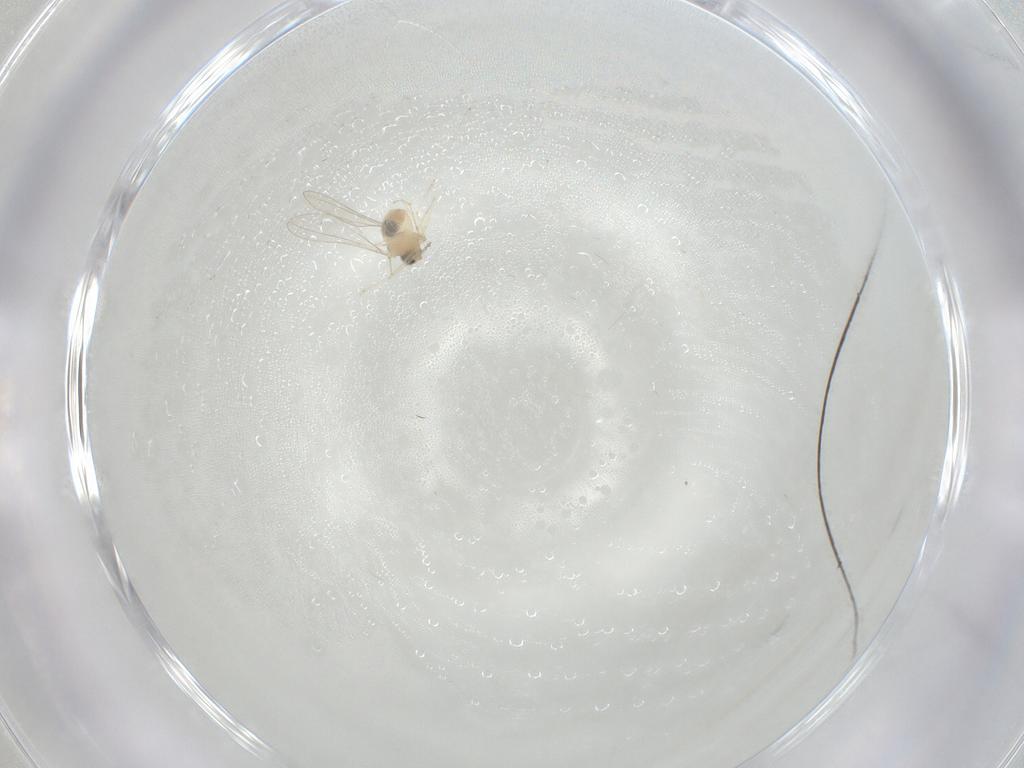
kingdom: Animalia
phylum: Arthropoda
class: Insecta
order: Diptera
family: Cecidomyiidae
